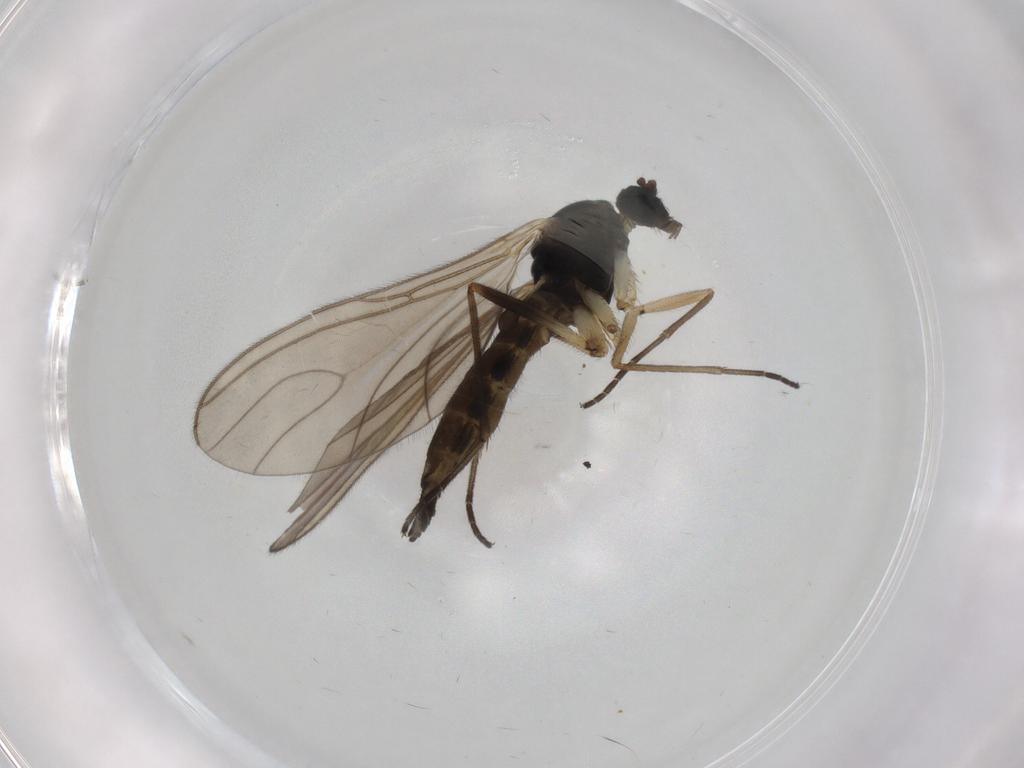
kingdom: Animalia
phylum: Arthropoda
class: Insecta
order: Diptera
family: Sciaridae
